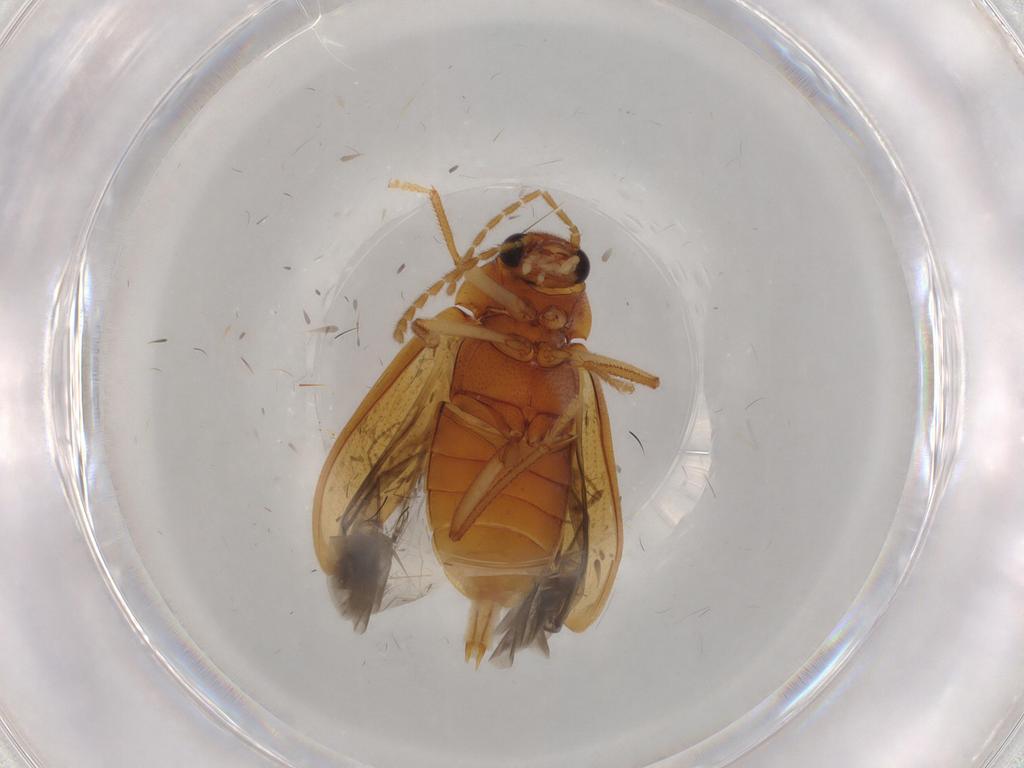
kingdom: Animalia
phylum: Arthropoda
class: Insecta
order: Coleoptera
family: Ptilodactylidae
